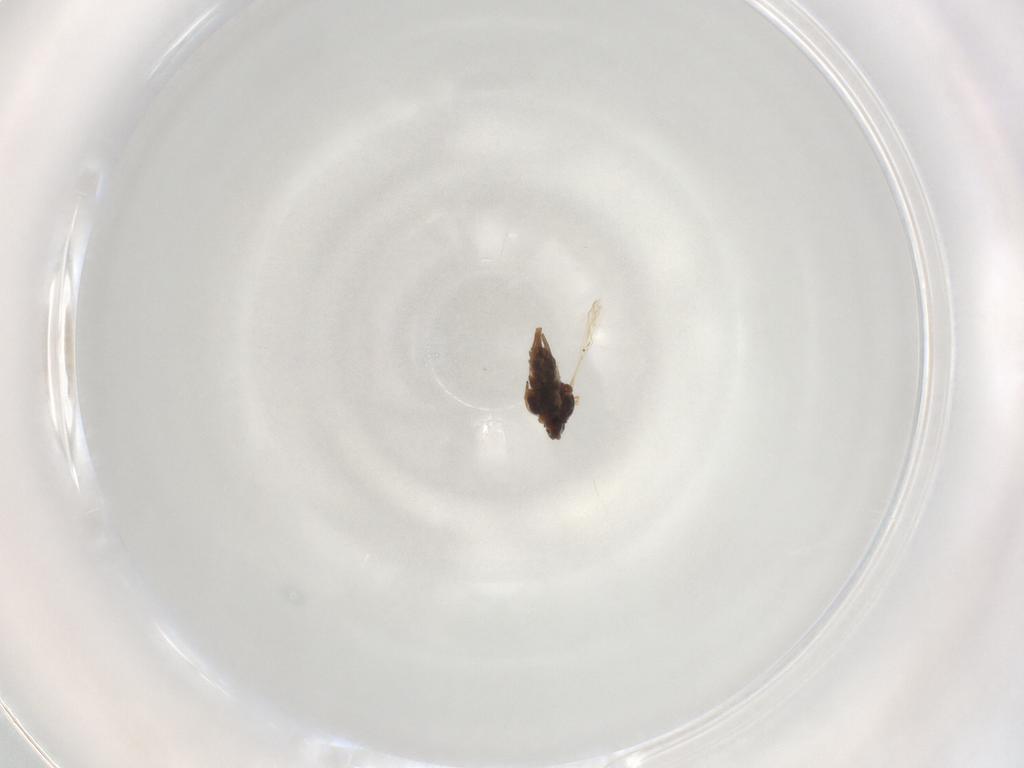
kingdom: Animalia
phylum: Arthropoda
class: Insecta
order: Hemiptera
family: Aphididae
